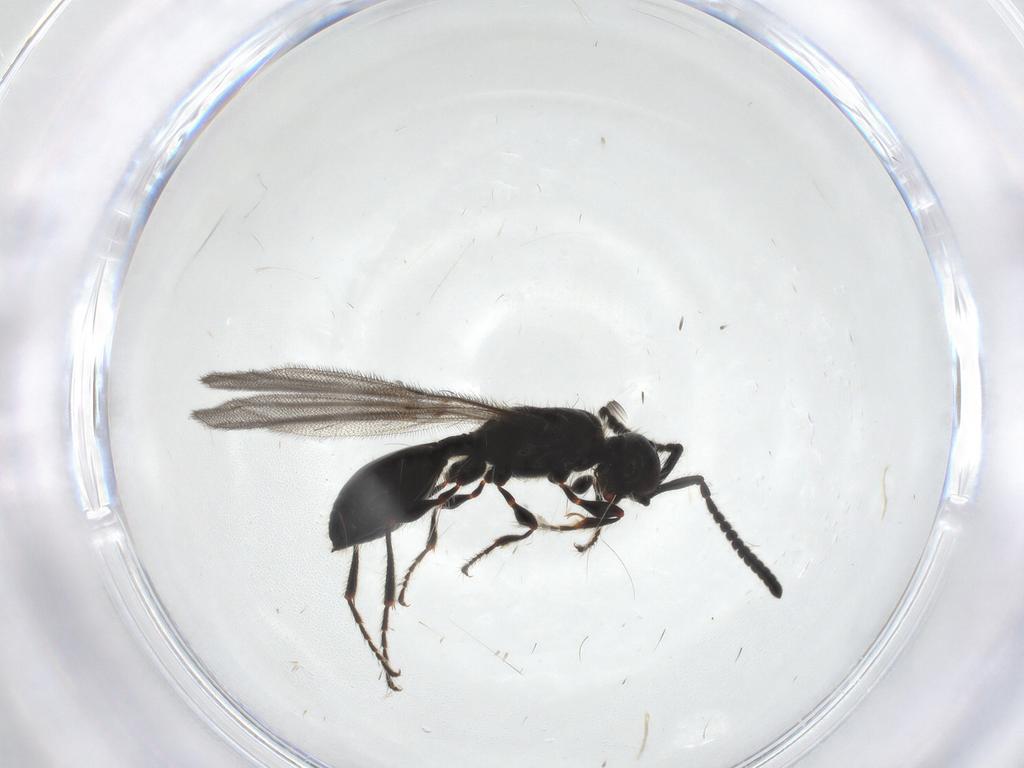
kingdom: Animalia
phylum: Arthropoda
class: Insecta
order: Hymenoptera
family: Diapriidae
